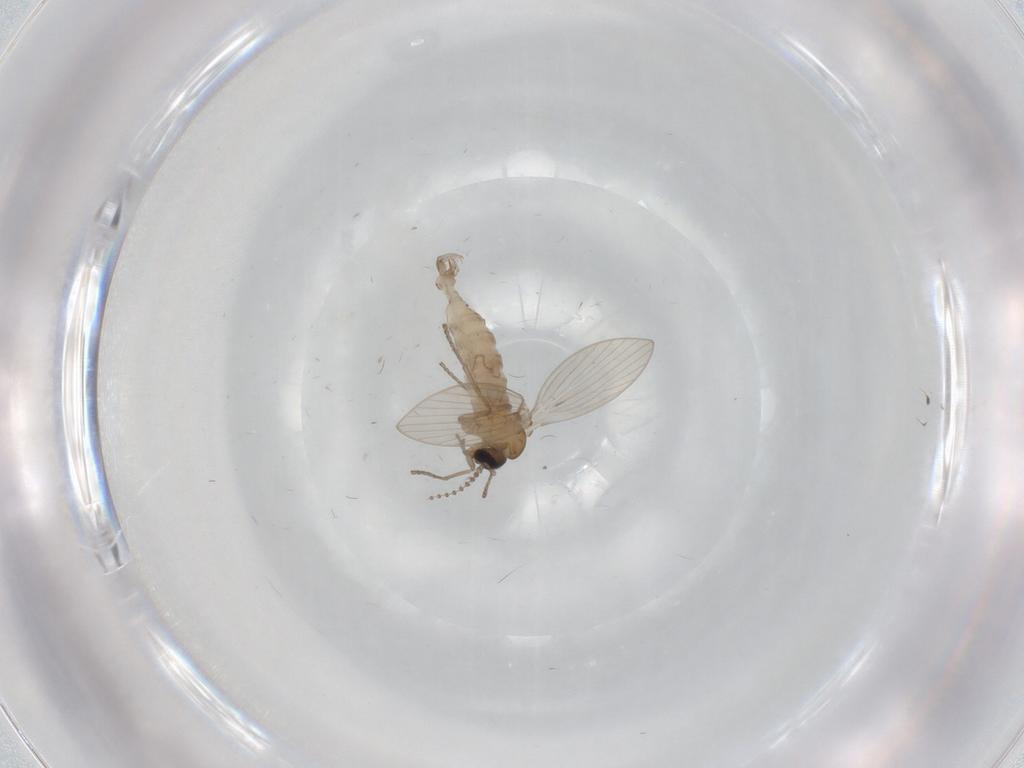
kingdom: Animalia
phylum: Arthropoda
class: Insecta
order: Diptera
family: Psychodidae
